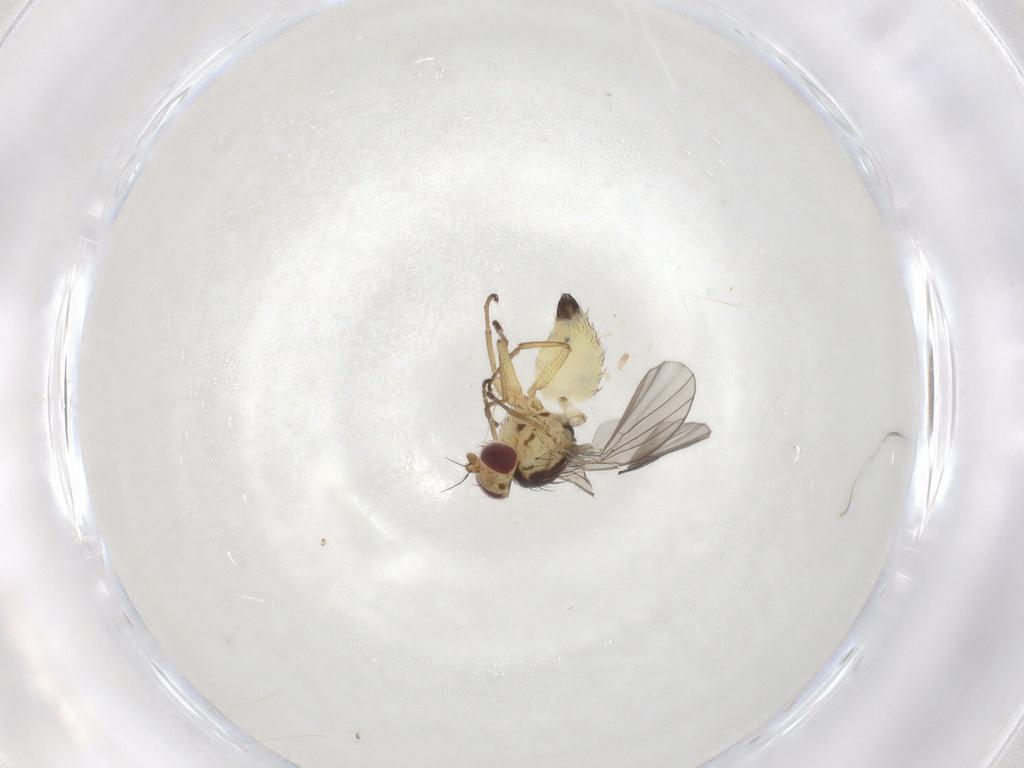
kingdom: Animalia
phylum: Arthropoda
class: Insecta
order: Diptera
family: Agromyzidae
